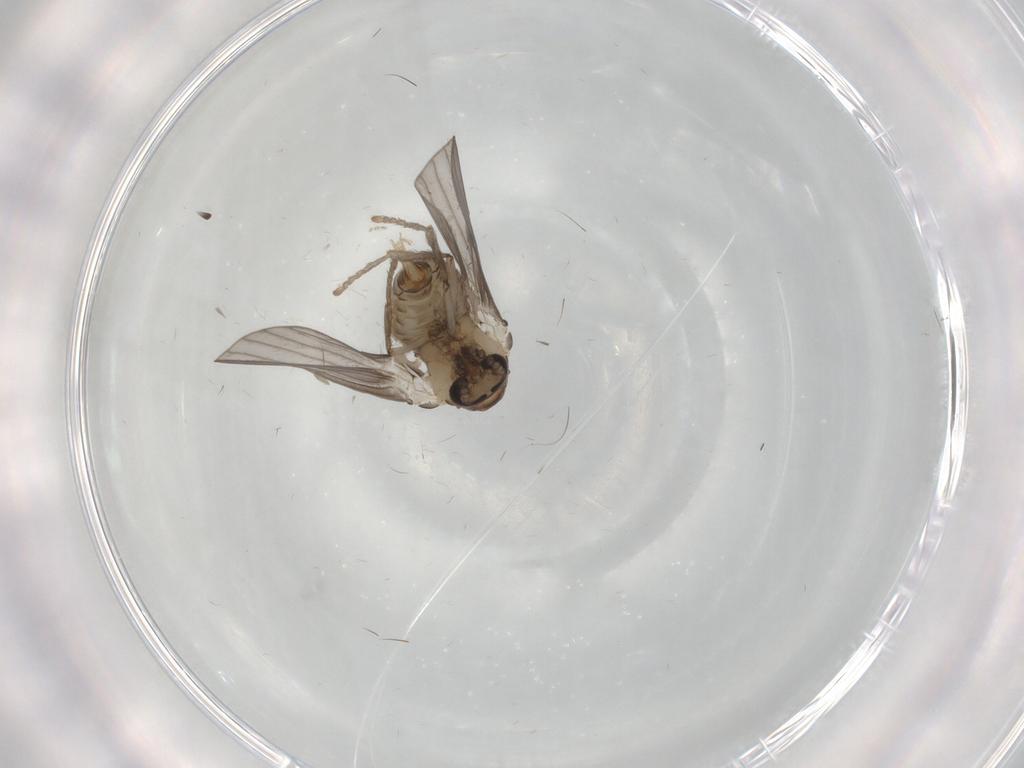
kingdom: Animalia
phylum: Arthropoda
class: Insecta
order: Diptera
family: Psychodidae
